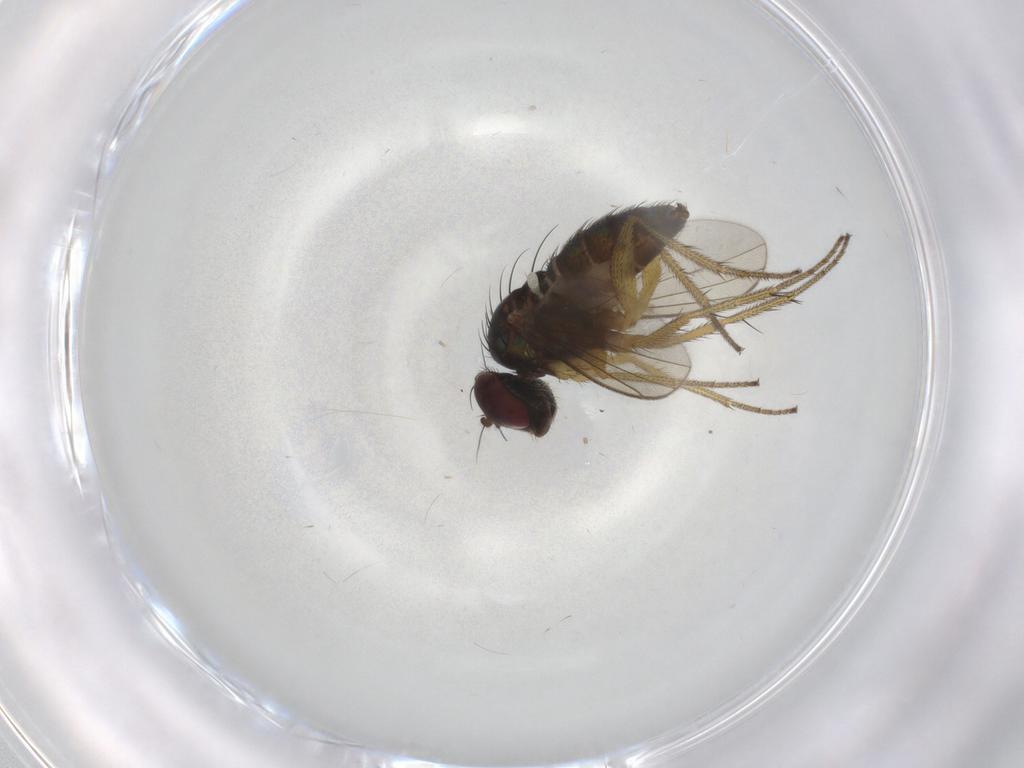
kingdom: Animalia
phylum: Arthropoda
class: Insecta
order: Diptera
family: Dolichopodidae
